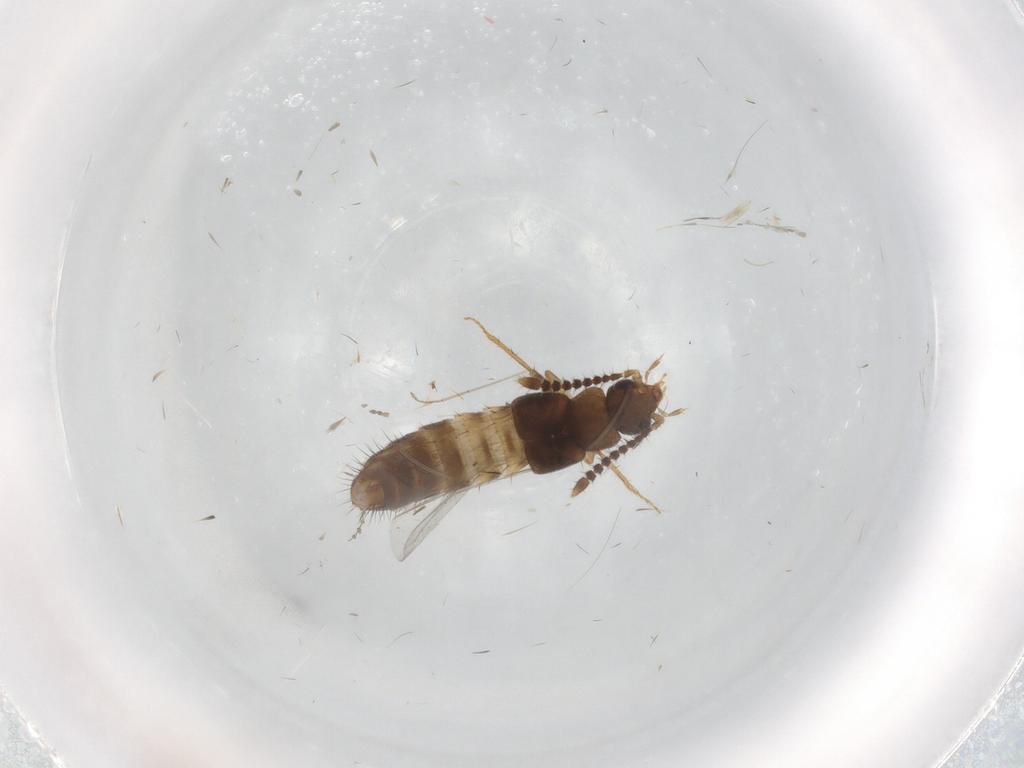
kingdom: Animalia
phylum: Arthropoda
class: Insecta
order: Coleoptera
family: Staphylinidae
